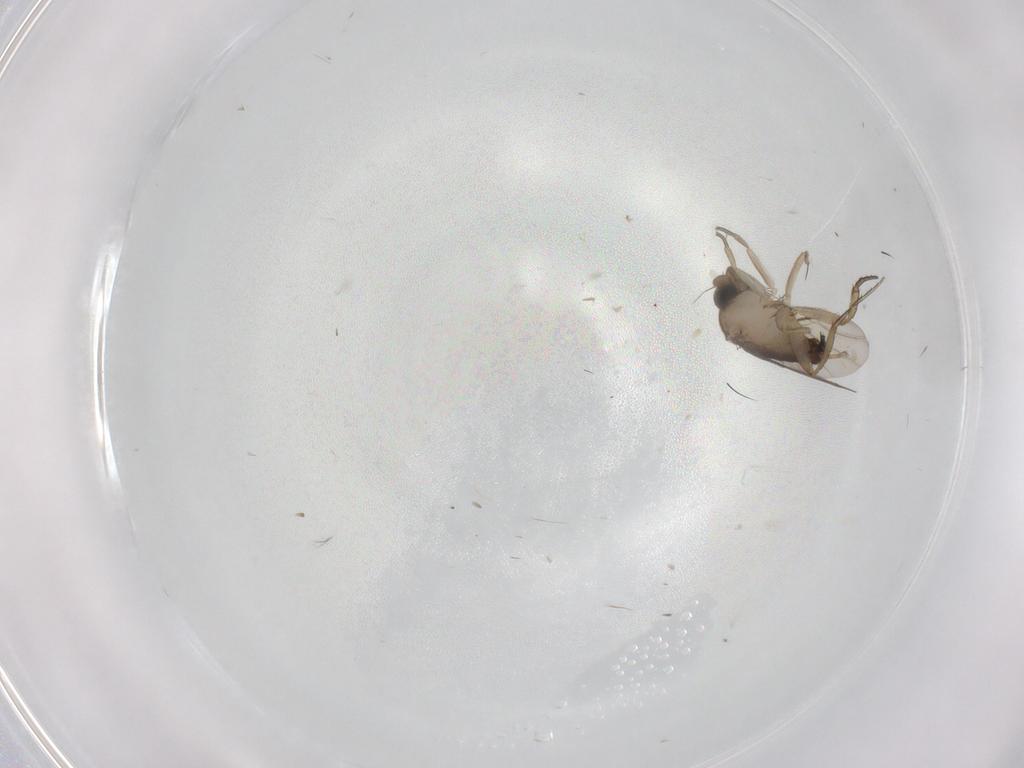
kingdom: Animalia
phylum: Arthropoda
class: Insecta
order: Diptera
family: Phoridae
